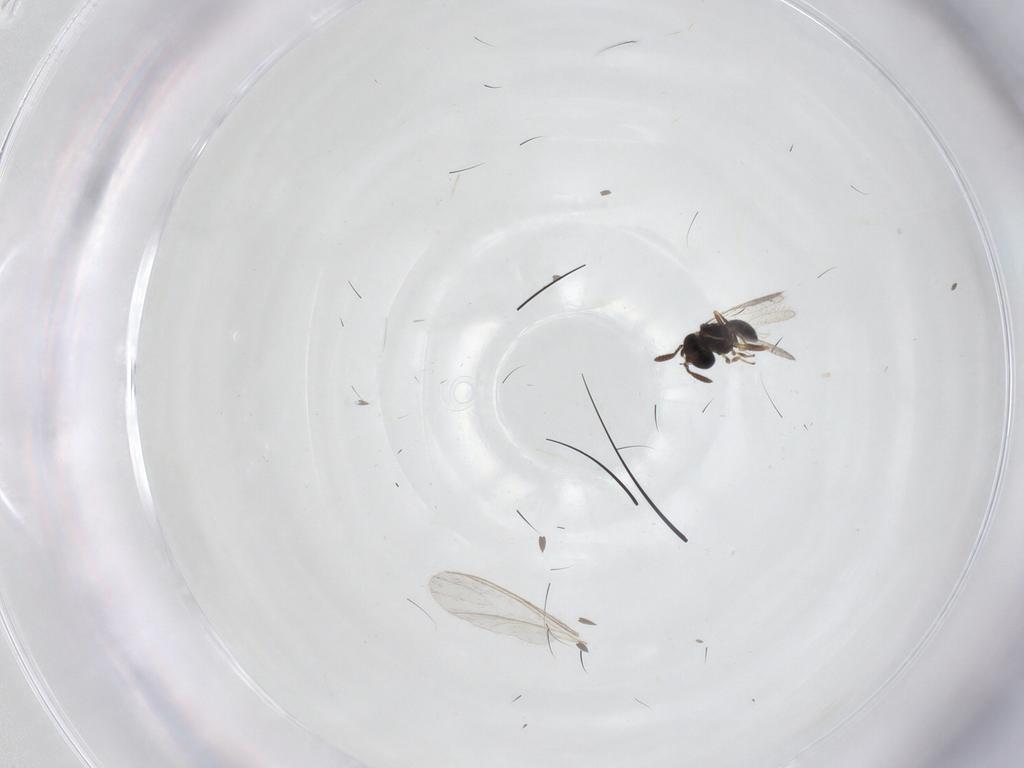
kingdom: Animalia
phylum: Arthropoda
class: Insecta
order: Diptera
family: Sciaridae
